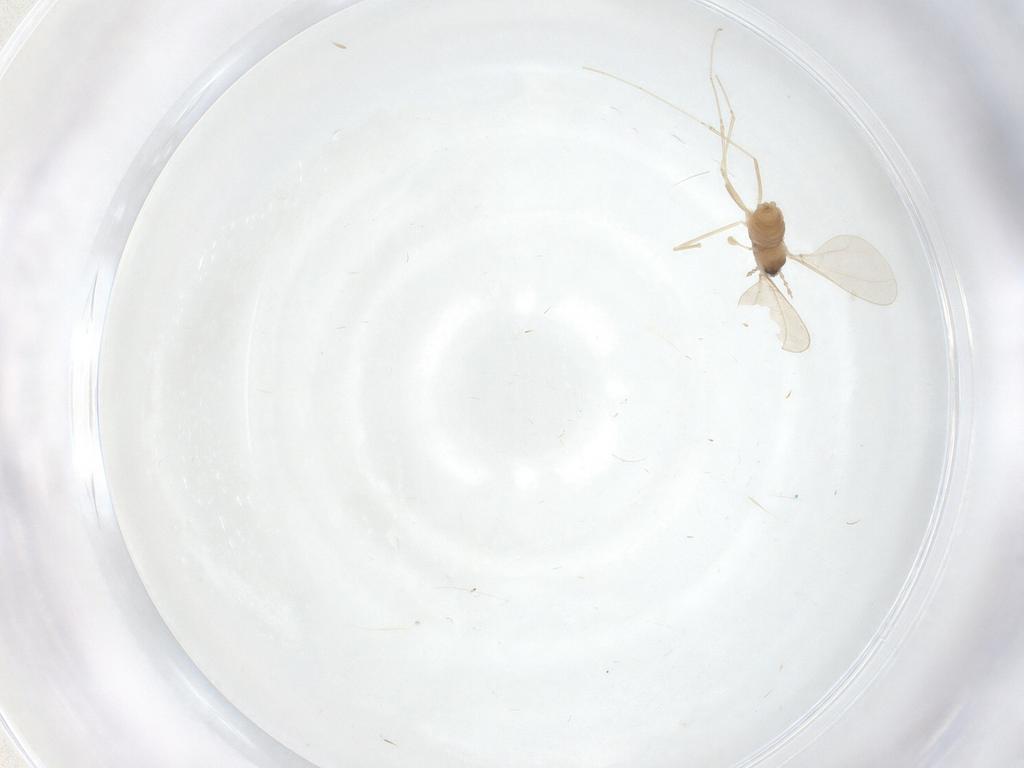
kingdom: Animalia
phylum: Arthropoda
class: Insecta
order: Diptera
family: Cecidomyiidae
